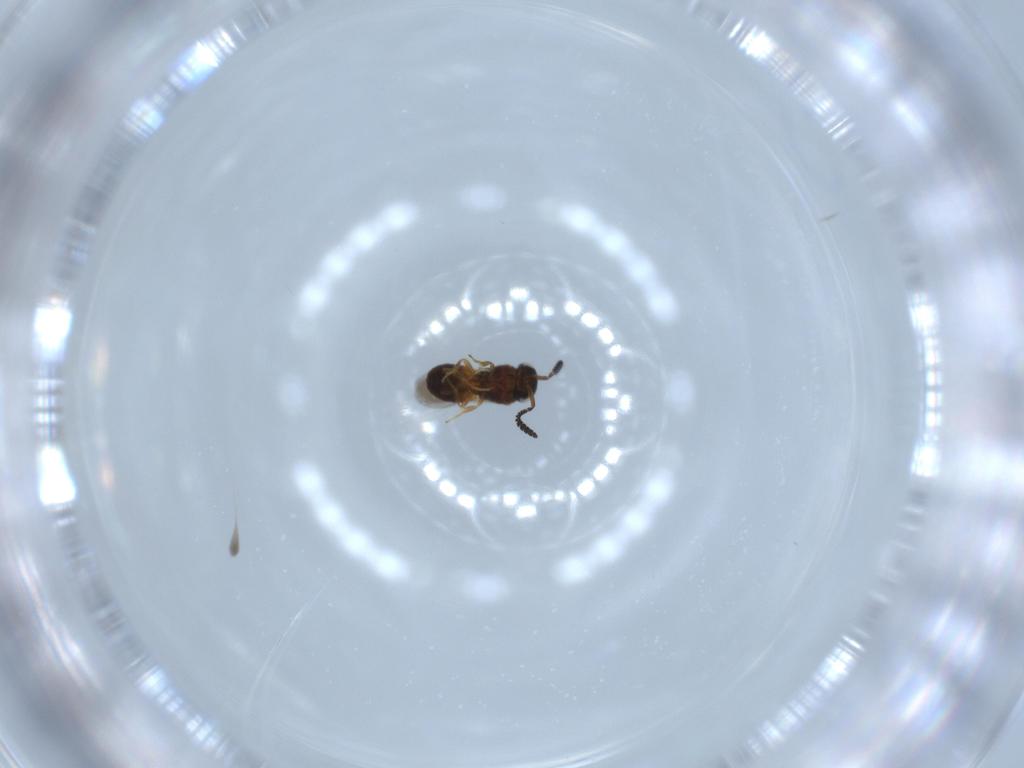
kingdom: Animalia
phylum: Arthropoda
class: Insecta
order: Hymenoptera
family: Scelionidae
